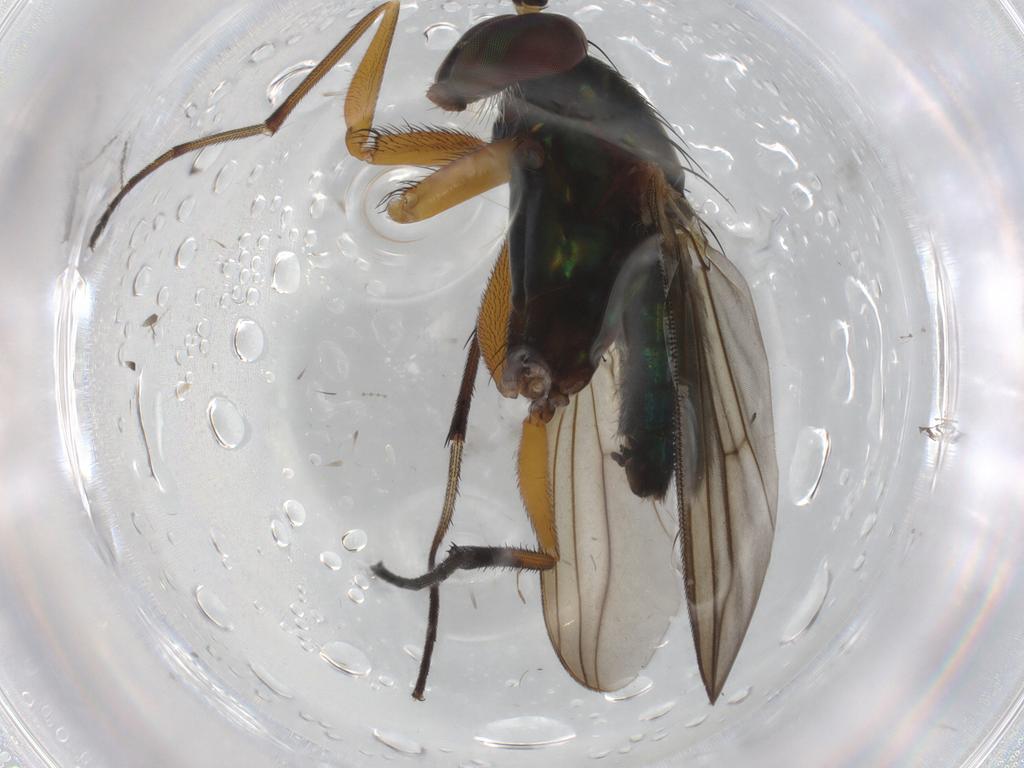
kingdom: Animalia
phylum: Arthropoda
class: Insecta
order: Diptera
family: Dolichopodidae
